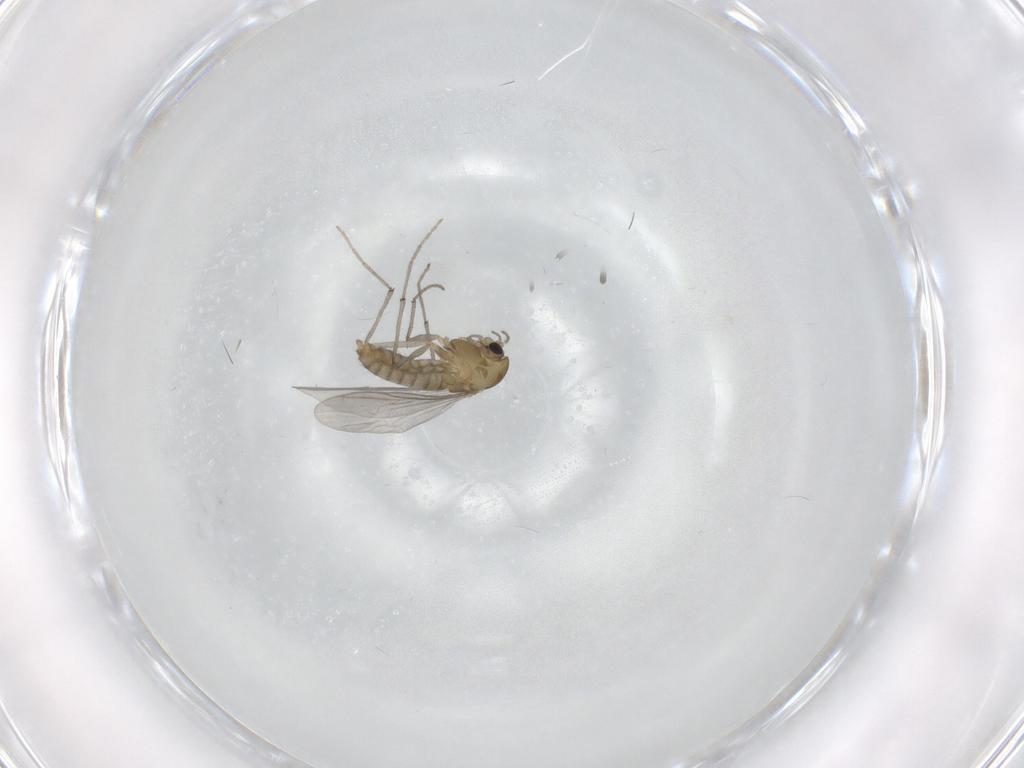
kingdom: Animalia
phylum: Arthropoda
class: Insecta
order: Diptera
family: Chironomidae
